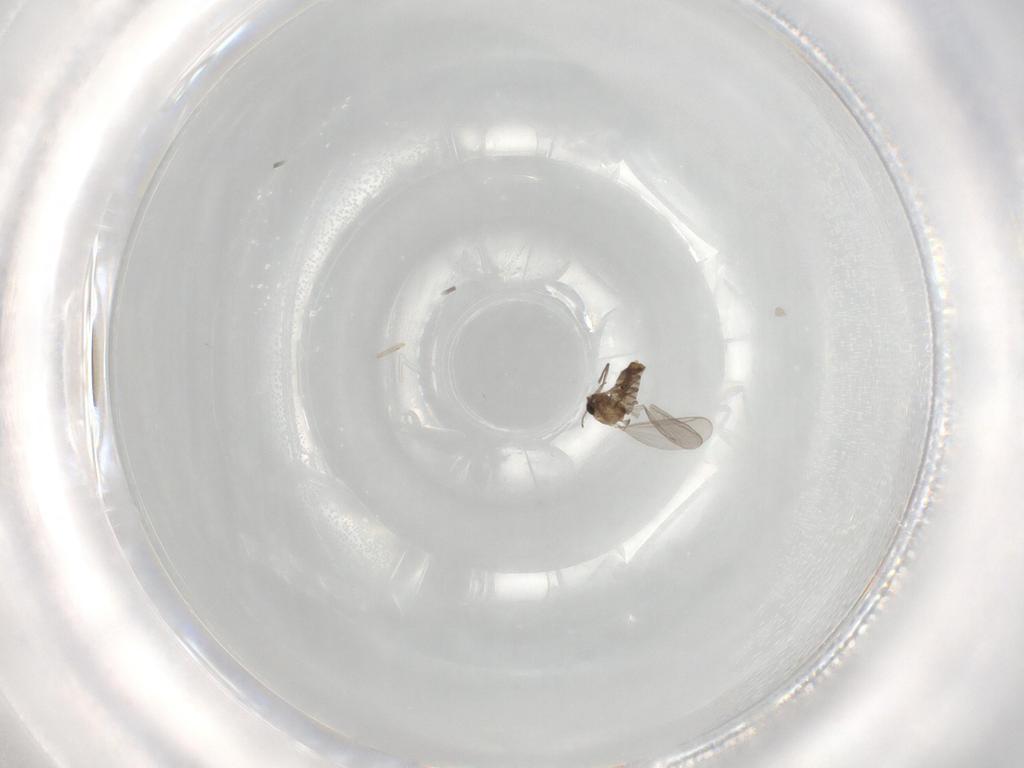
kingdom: Animalia
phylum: Arthropoda
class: Insecta
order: Diptera
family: Chironomidae
